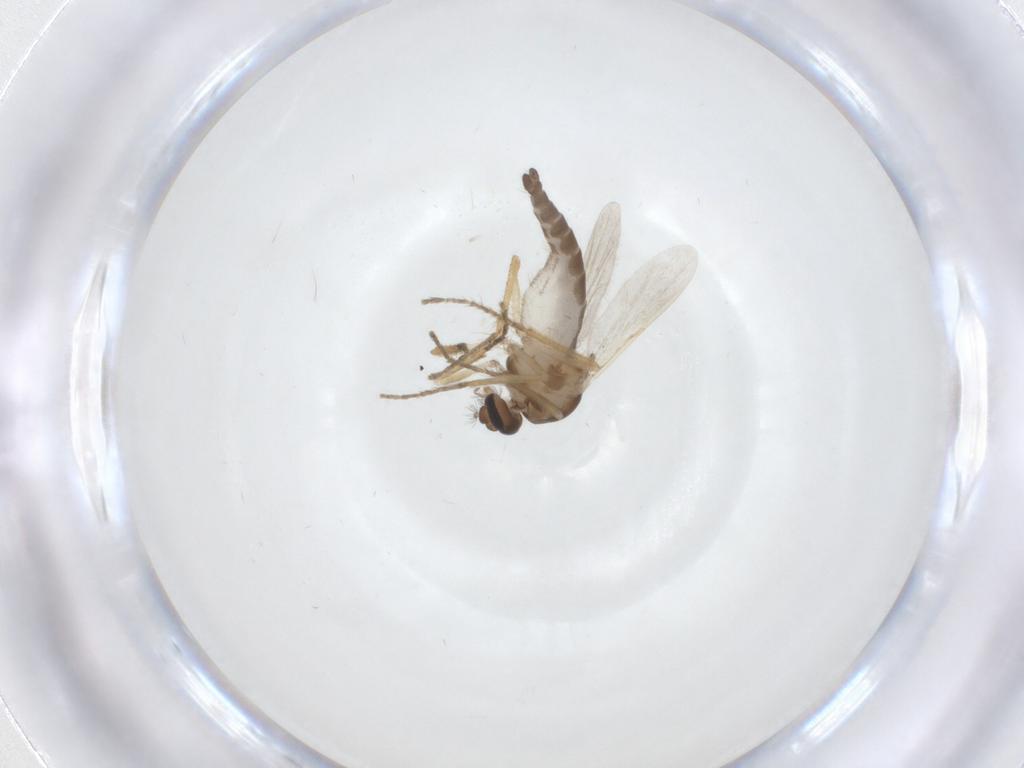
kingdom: Animalia
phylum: Arthropoda
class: Insecta
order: Diptera
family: Phoridae
